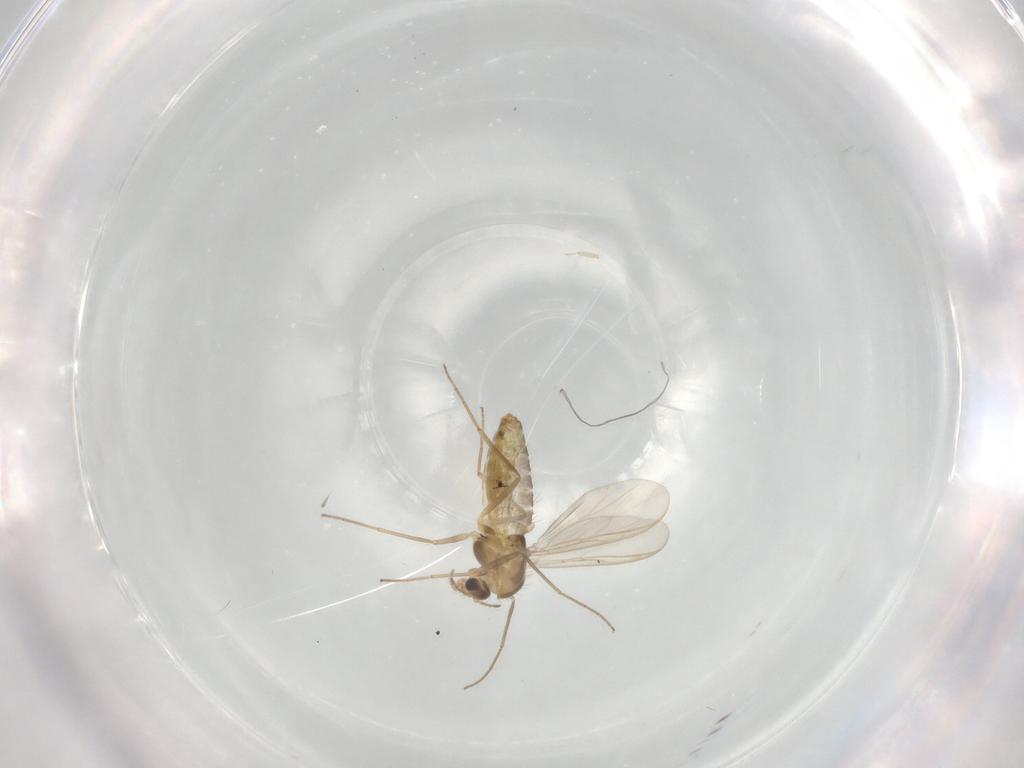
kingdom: Animalia
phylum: Arthropoda
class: Insecta
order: Diptera
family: Chironomidae
